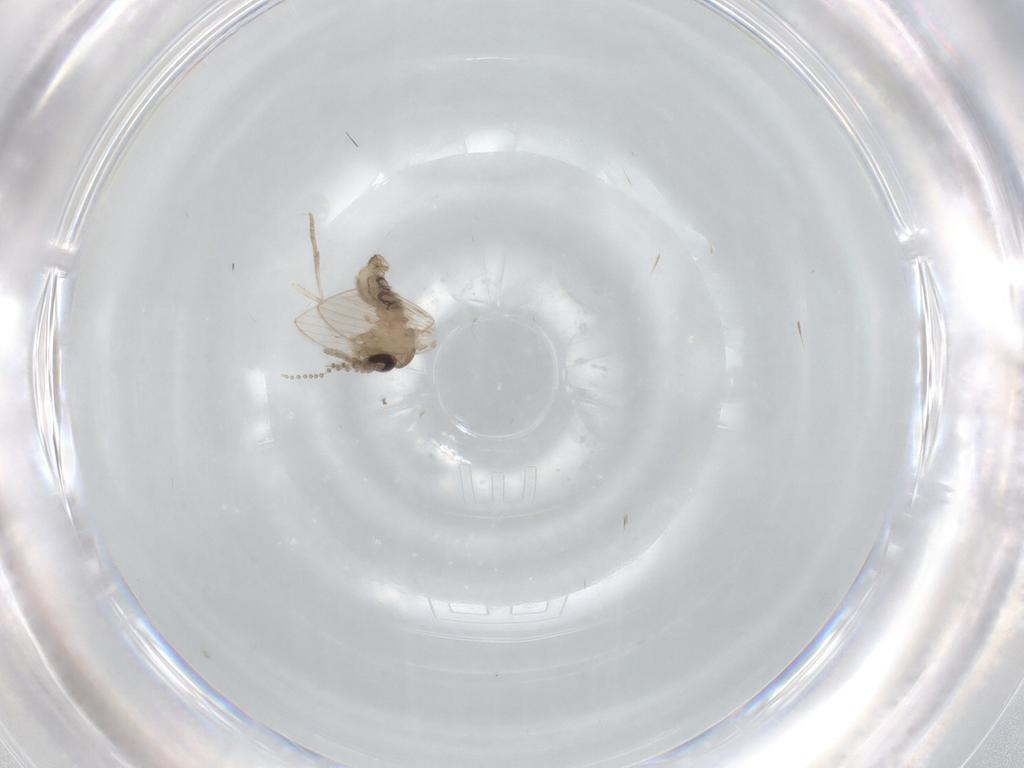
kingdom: Animalia
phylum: Arthropoda
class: Insecta
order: Diptera
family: Psychodidae
